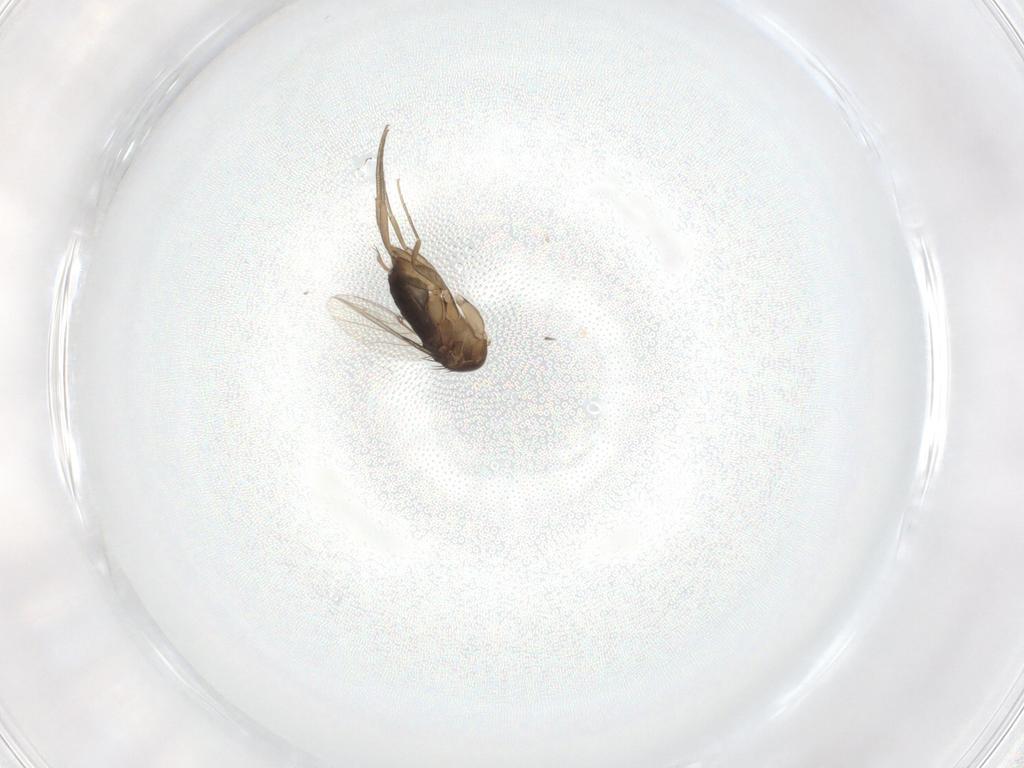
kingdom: Animalia
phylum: Arthropoda
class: Insecta
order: Diptera
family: Phoridae
